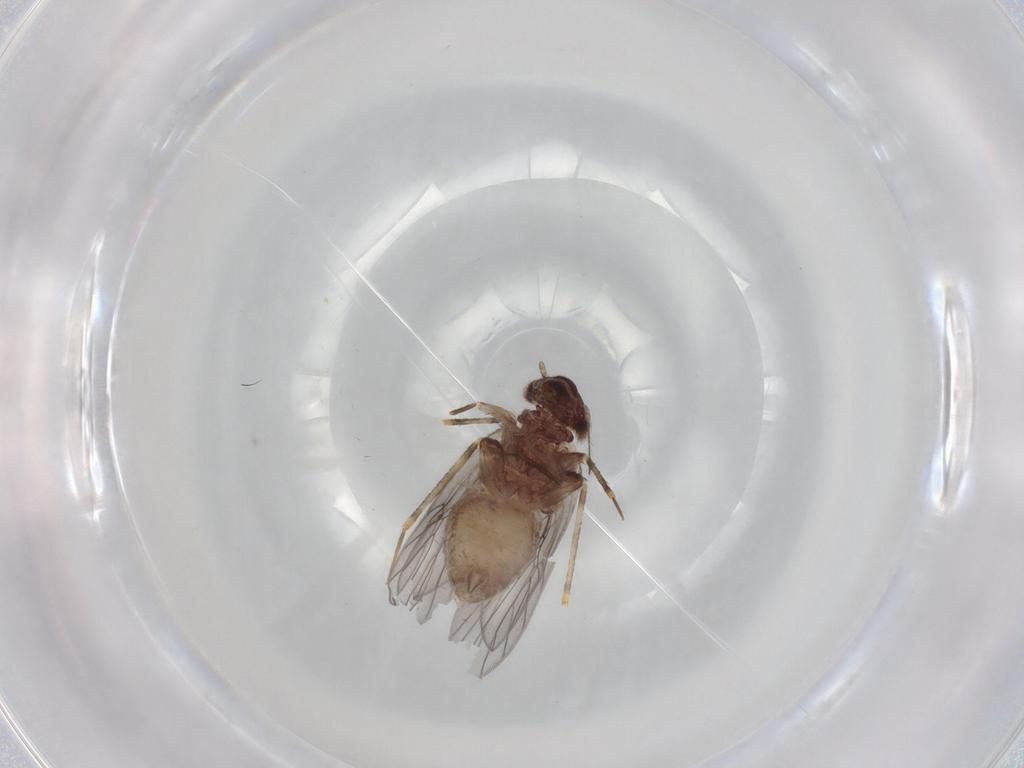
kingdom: Animalia
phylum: Arthropoda
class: Insecta
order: Psocodea
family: Lepidopsocidae
